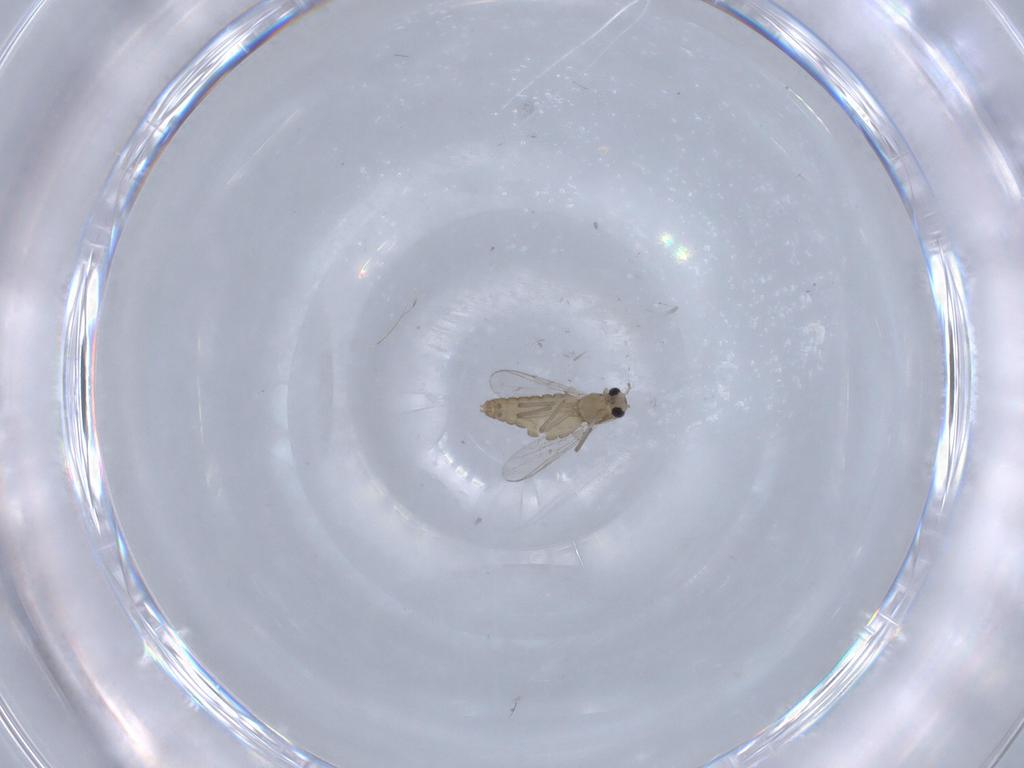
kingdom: Animalia
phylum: Arthropoda
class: Insecta
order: Diptera
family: Chironomidae
